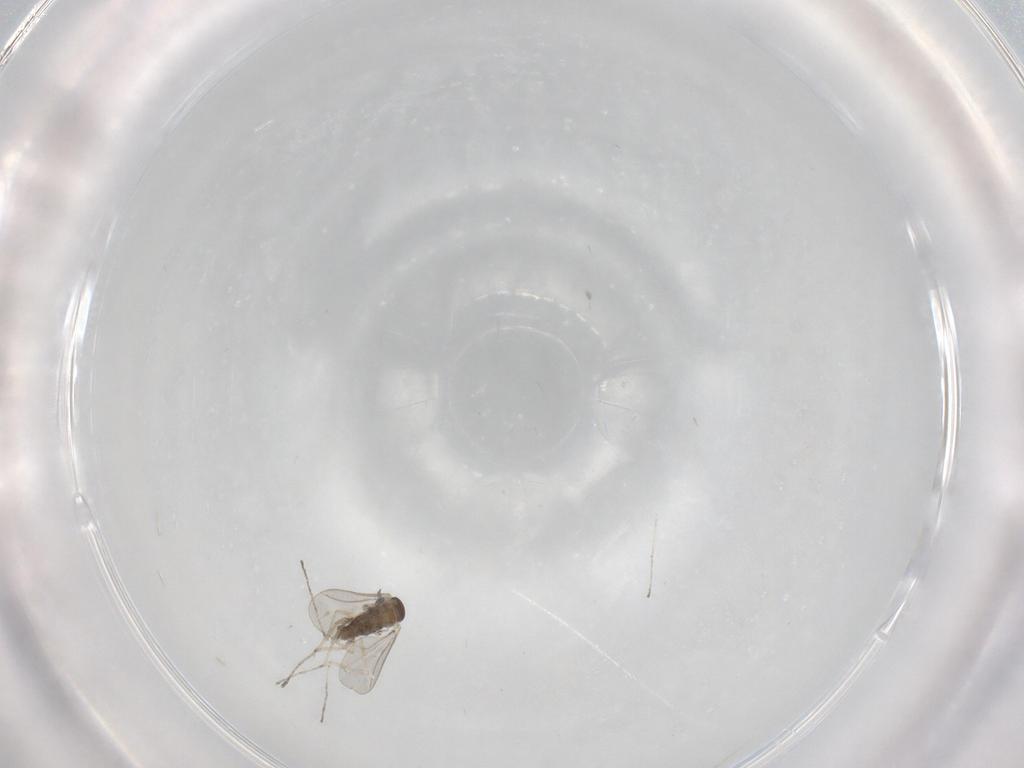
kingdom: Animalia
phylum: Arthropoda
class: Insecta
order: Diptera
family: Cecidomyiidae
